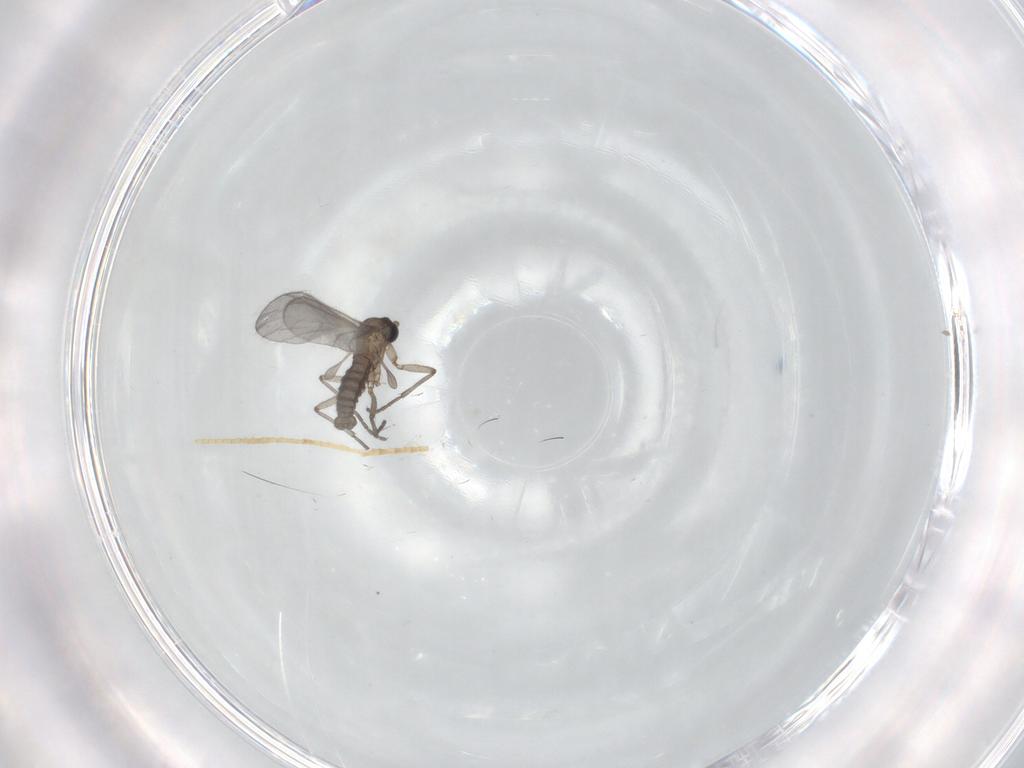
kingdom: Animalia
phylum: Arthropoda
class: Insecta
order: Diptera
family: Sciaridae
